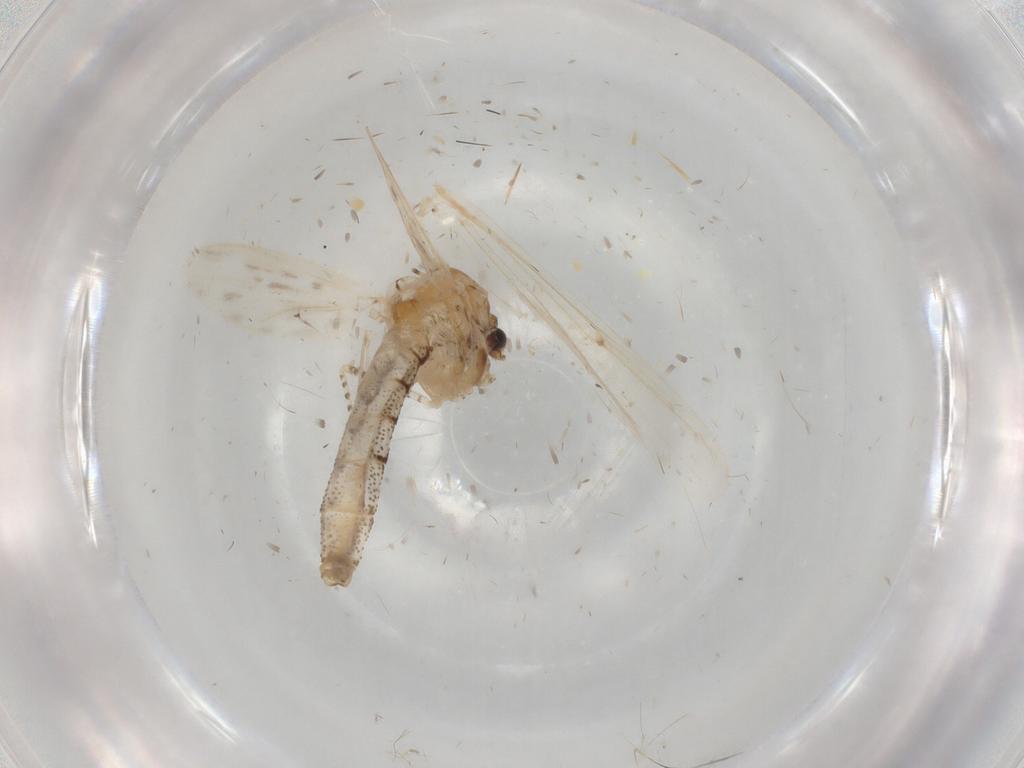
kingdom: Animalia
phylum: Arthropoda
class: Insecta
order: Diptera
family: Chaoboridae
